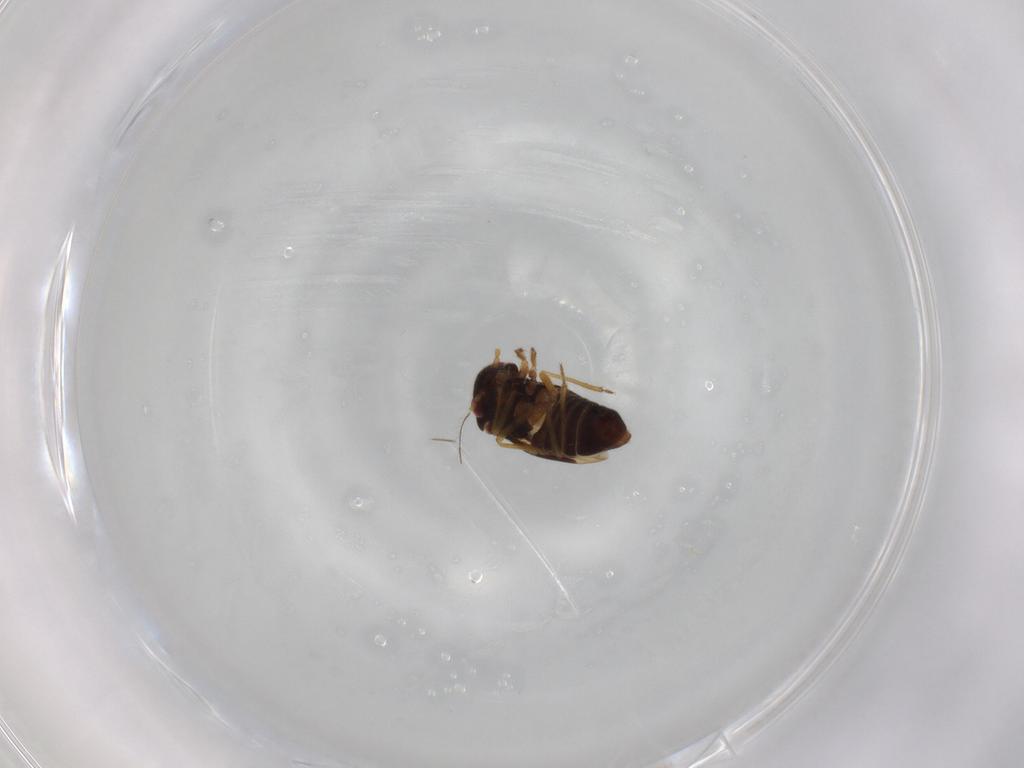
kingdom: Animalia
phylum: Arthropoda
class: Insecta
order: Hemiptera
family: Schizopteridae
